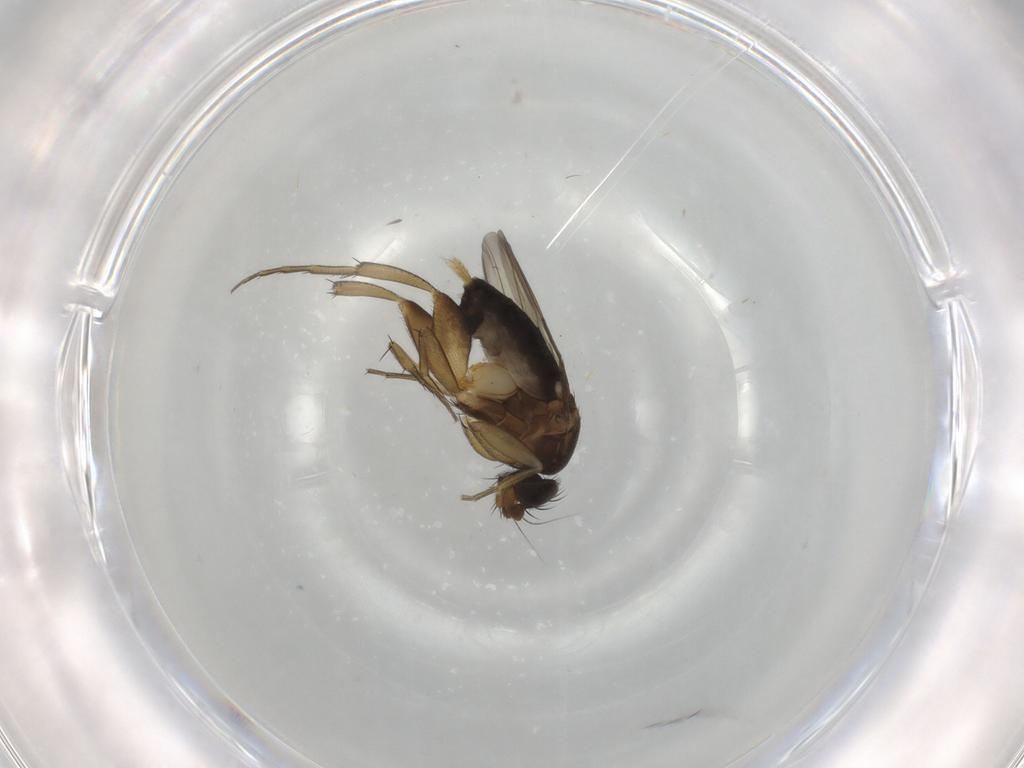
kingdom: Animalia
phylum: Arthropoda
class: Insecta
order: Diptera
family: Phoridae
